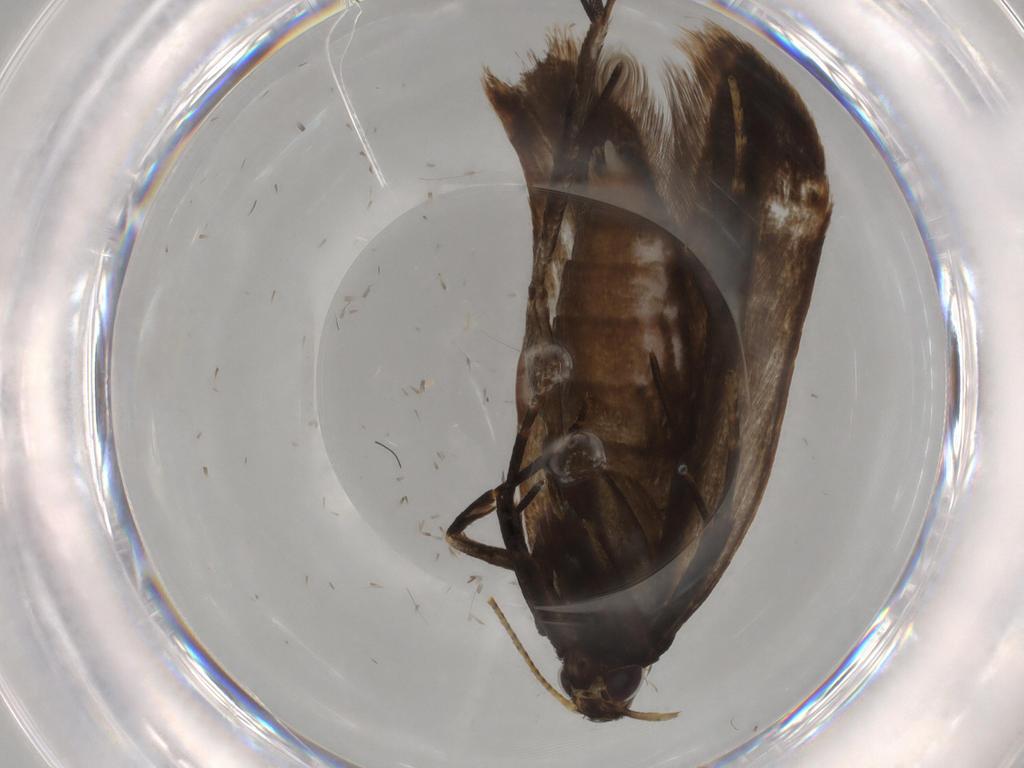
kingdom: Animalia
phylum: Arthropoda
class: Insecta
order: Lepidoptera
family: Gelechiidae
